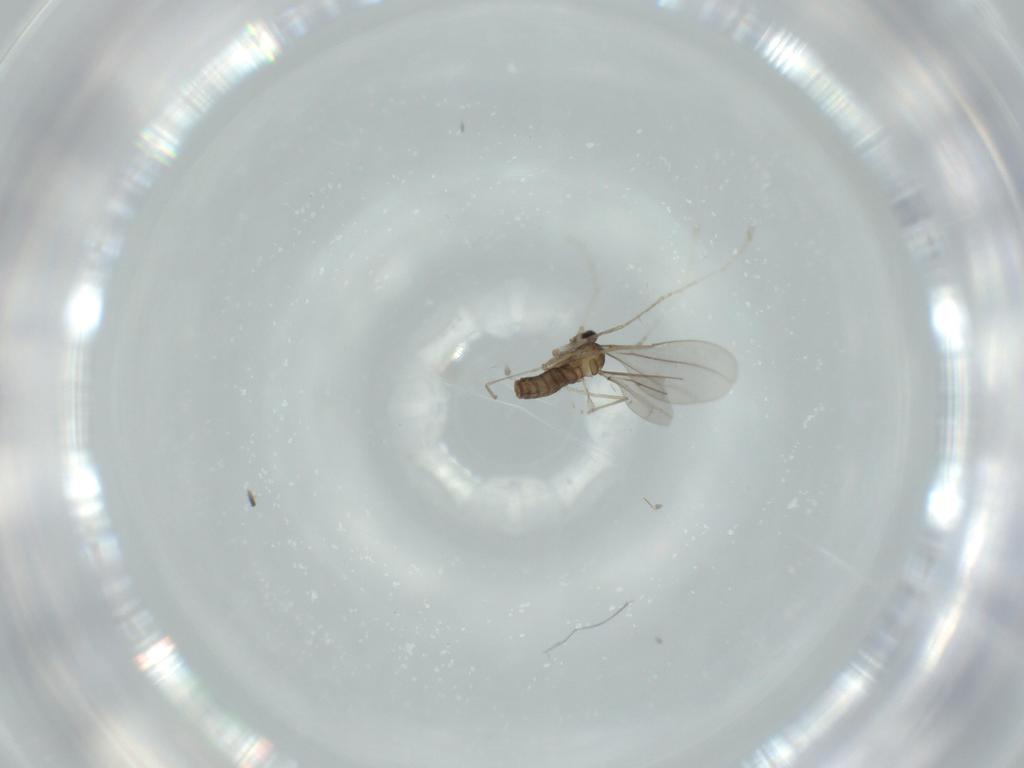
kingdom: Animalia
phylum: Arthropoda
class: Insecta
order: Diptera
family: Cecidomyiidae
